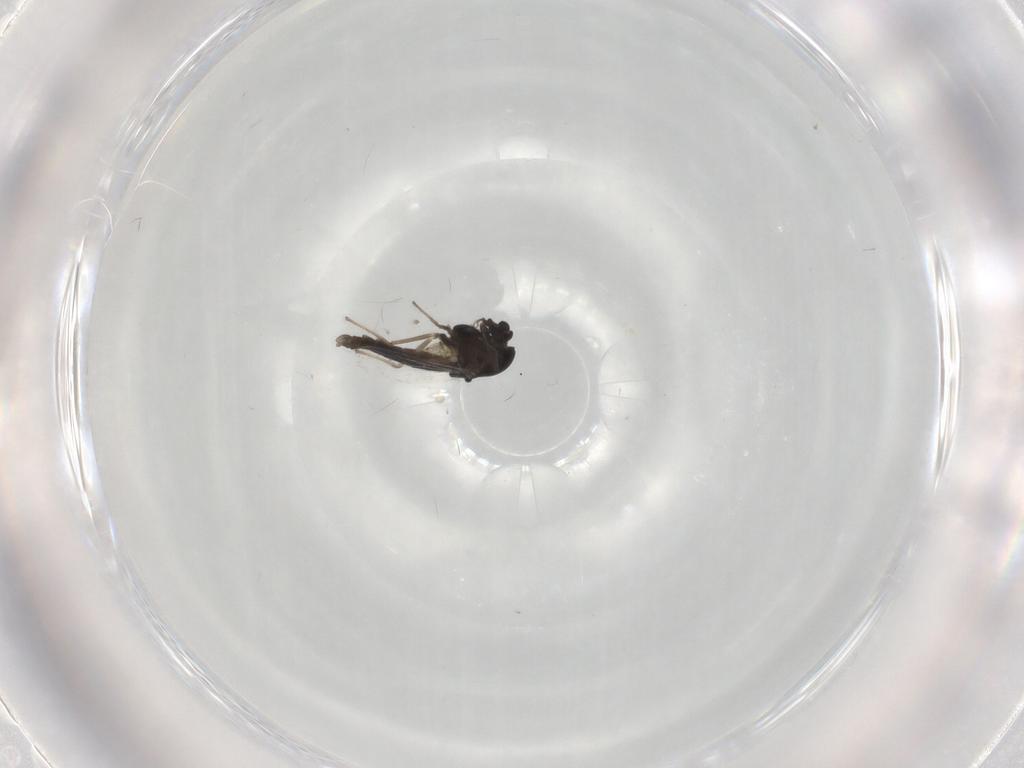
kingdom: Animalia
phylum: Arthropoda
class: Insecta
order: Diptera
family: Chironomidae
